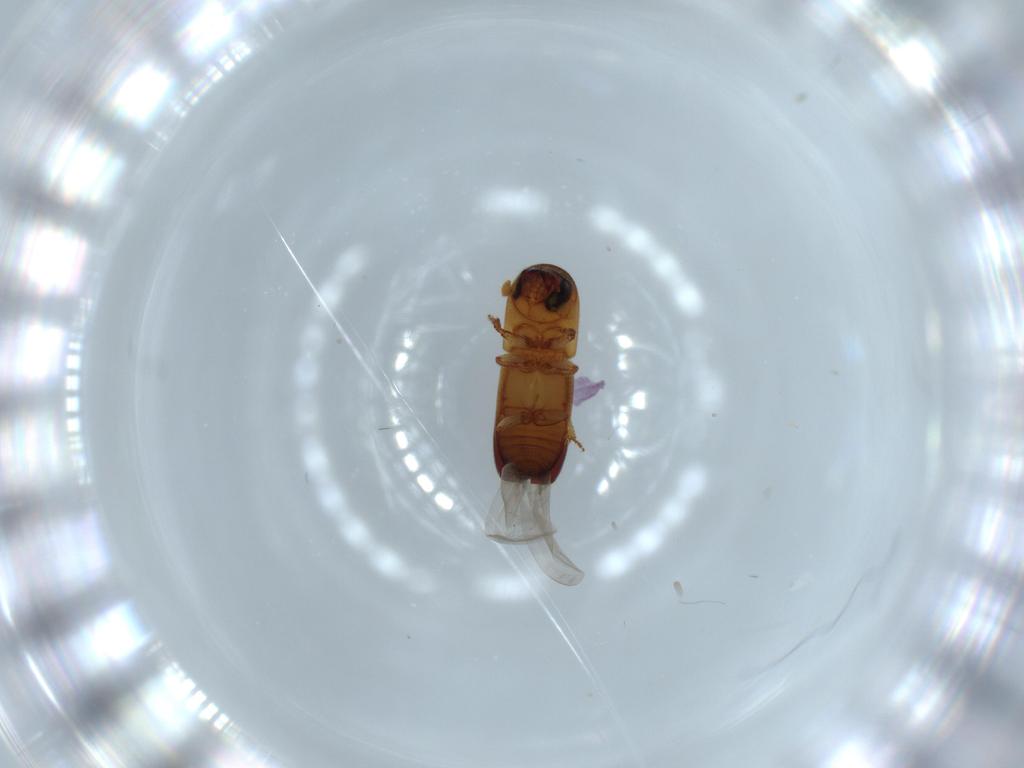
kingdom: Animalia
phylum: Arthropoda
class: Insecta
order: Coleoptera
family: Curculionidae
